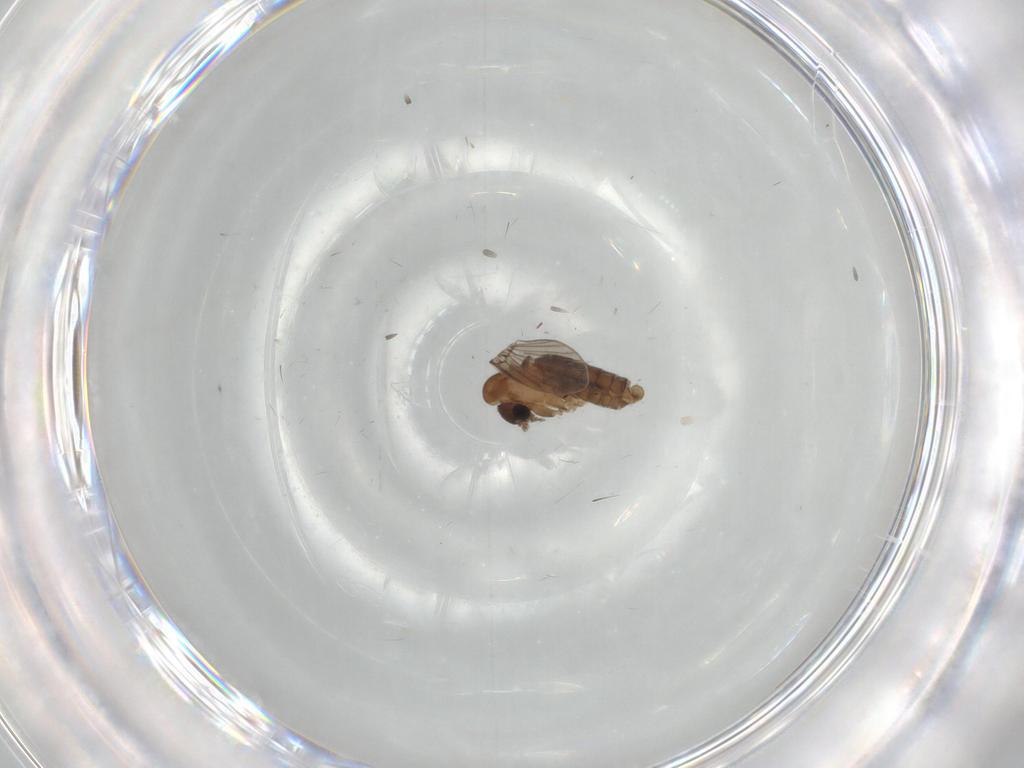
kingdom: Animalia
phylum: Arthropoda
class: Insecta
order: Diptera
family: Psychodidae
